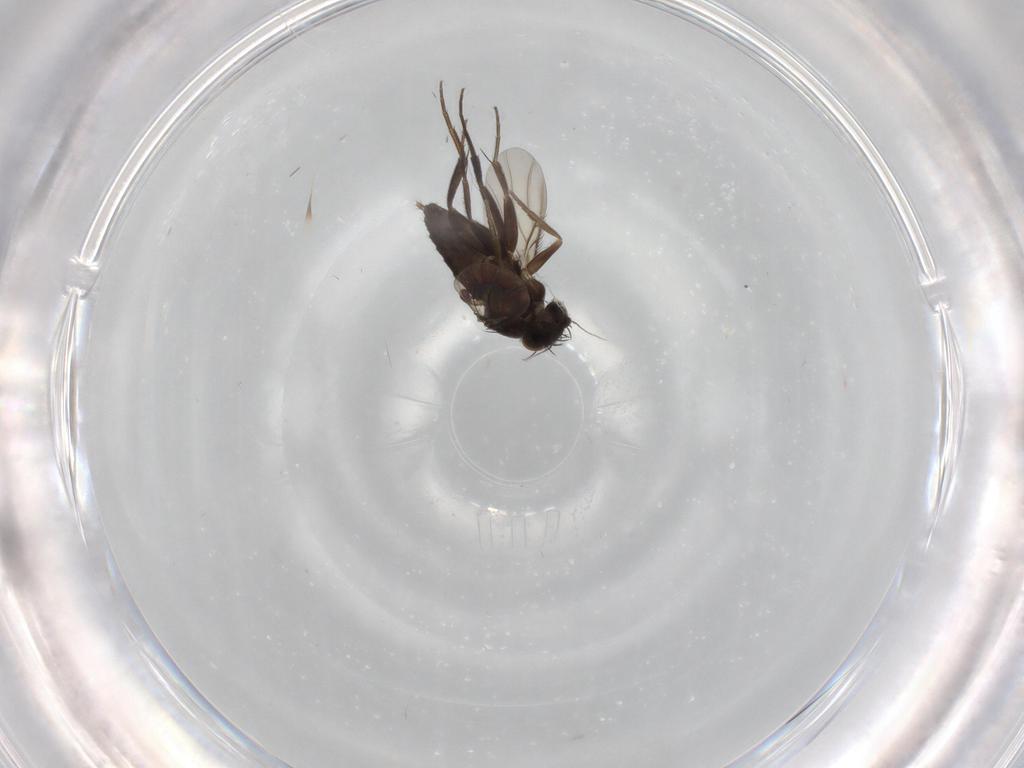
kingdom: Animalia
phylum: Arthropoda
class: Insecta
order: Diptera
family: Phoridae
